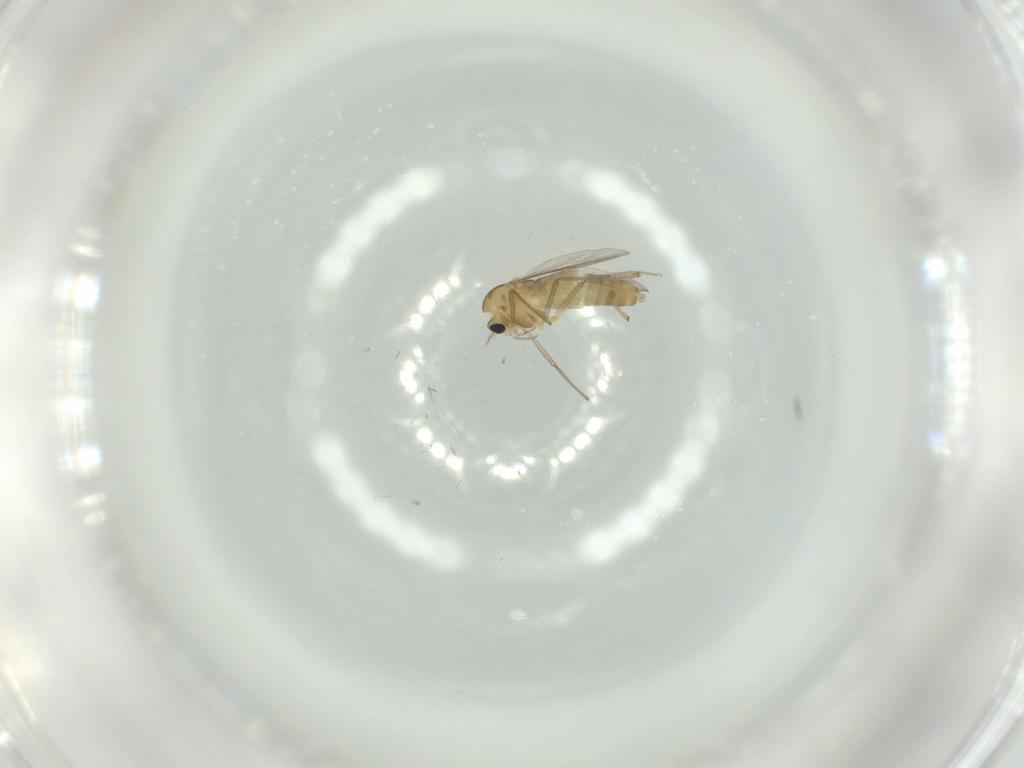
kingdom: Animalia
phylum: Arthropoda
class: Insecta
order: Diptera
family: Chironomidae
